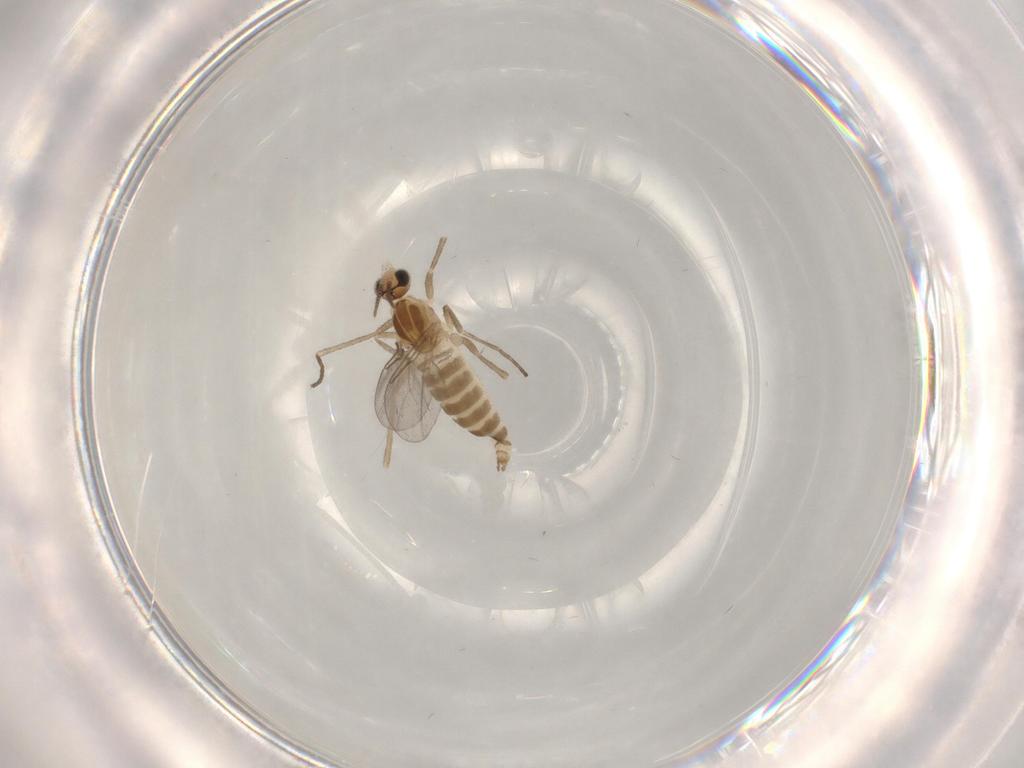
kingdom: Animalia
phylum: Arthropoda
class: Insecta
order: Diptera
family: Cecidomyiidae
